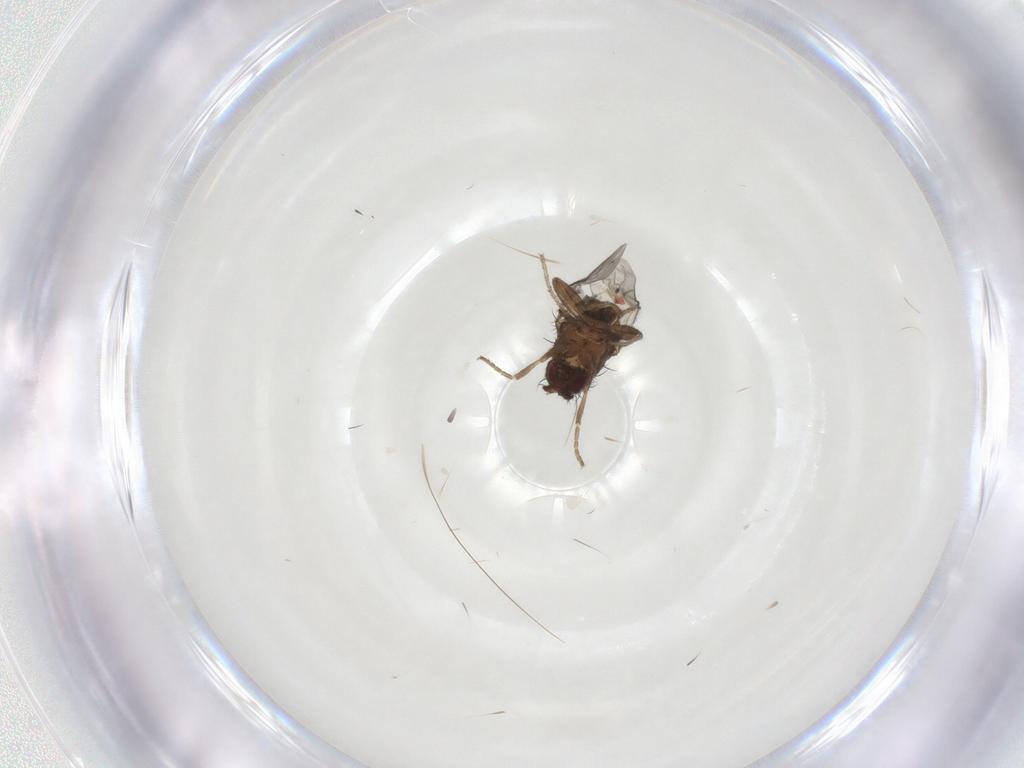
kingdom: Animalia
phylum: Arthropoda
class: Insecta
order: Diptera
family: Sphaeroceridae
